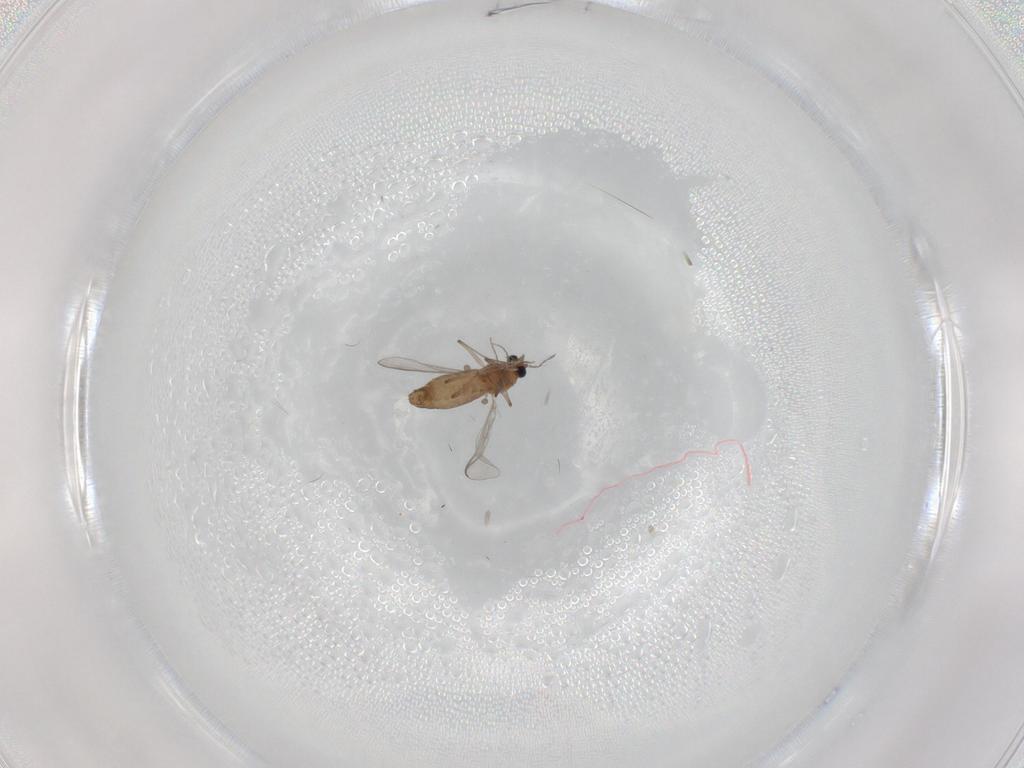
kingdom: Animalia
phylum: Arthropoda
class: Insecta
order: Diptera
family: Chironomidae
